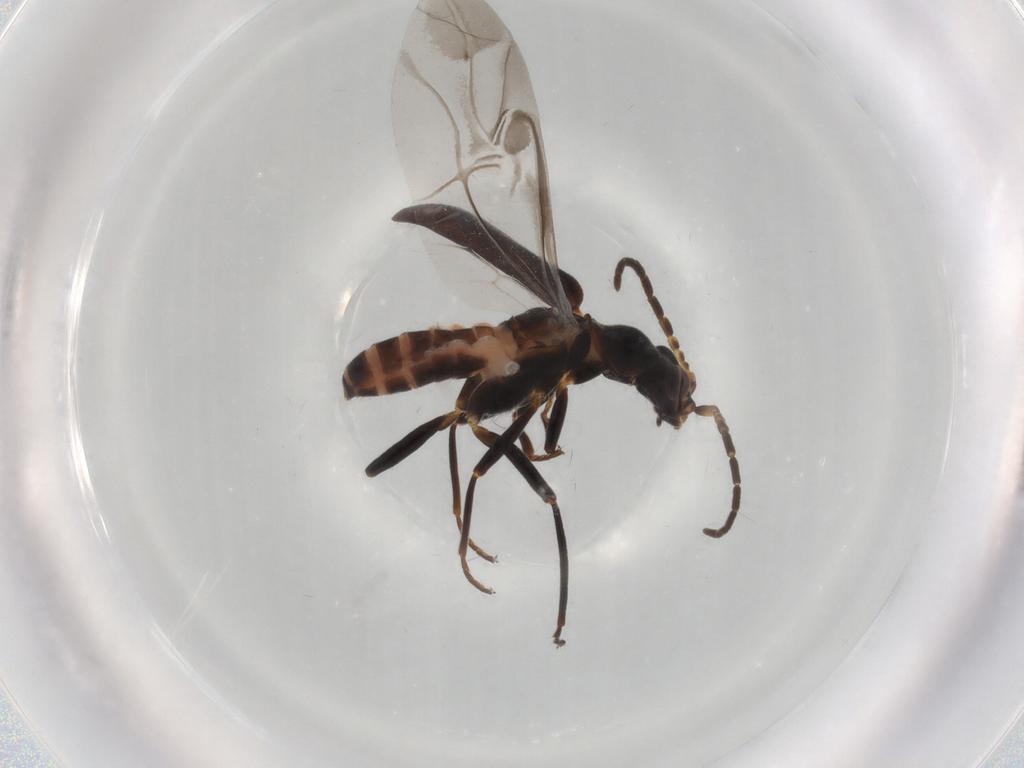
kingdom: Animalia
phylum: Arthropoda
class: Insecta
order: Coleoptera
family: Melyridae
